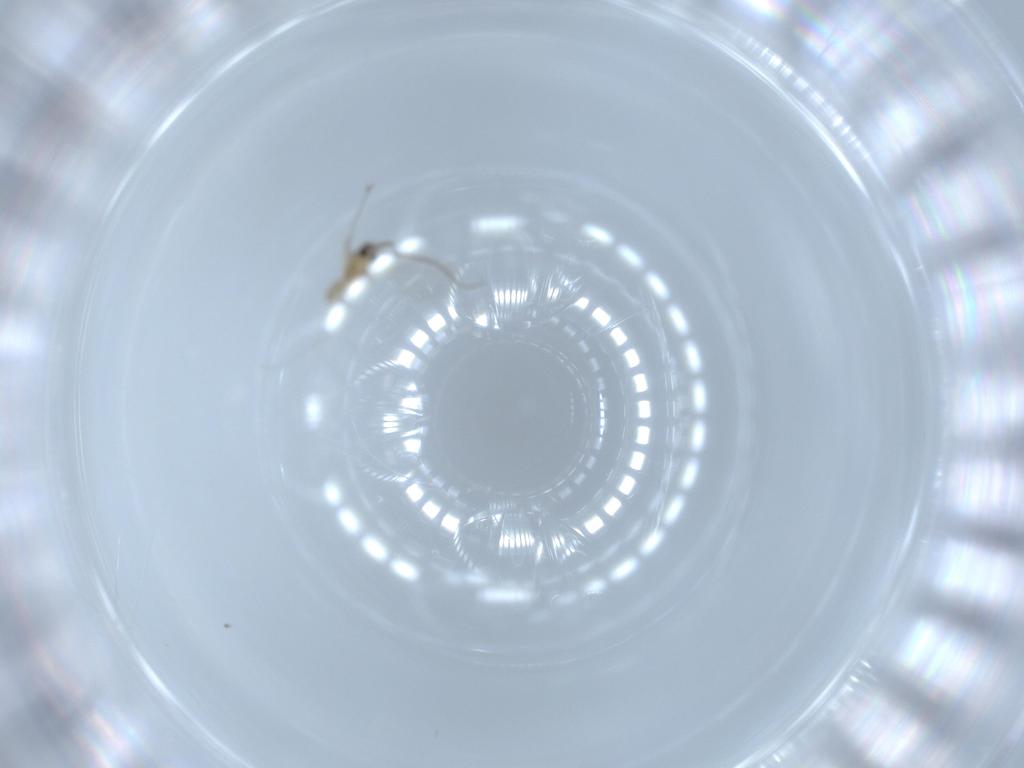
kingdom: Animalia
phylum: Arthropoda
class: Insecta
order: Diptera
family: Cecidomyiidae
